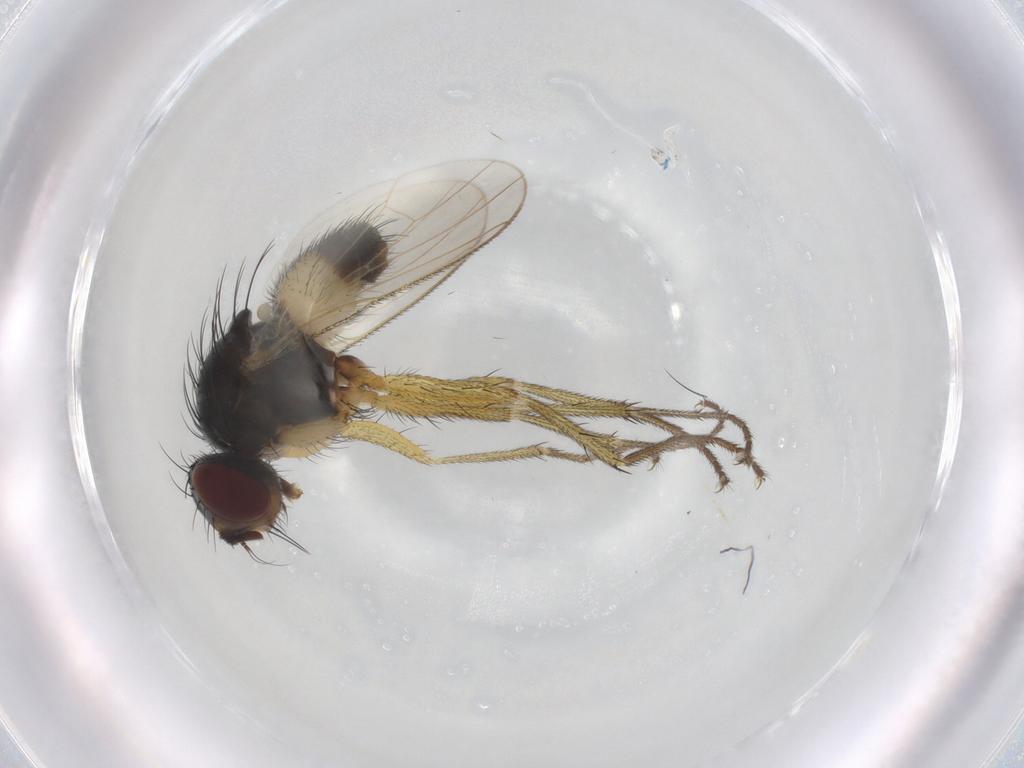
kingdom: Animalia
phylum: Arthropoda
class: Insecta
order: Diptera
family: Muscidae
